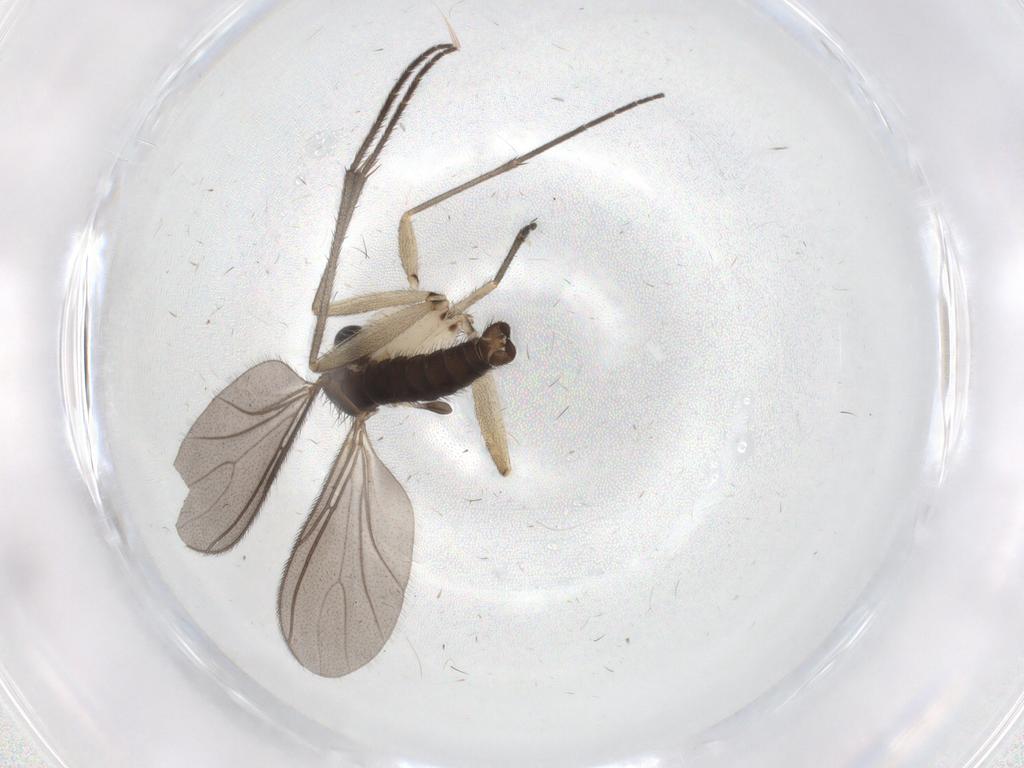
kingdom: Animalia
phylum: Arthropoda
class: Insecta
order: Diptera
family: Sciaridae
